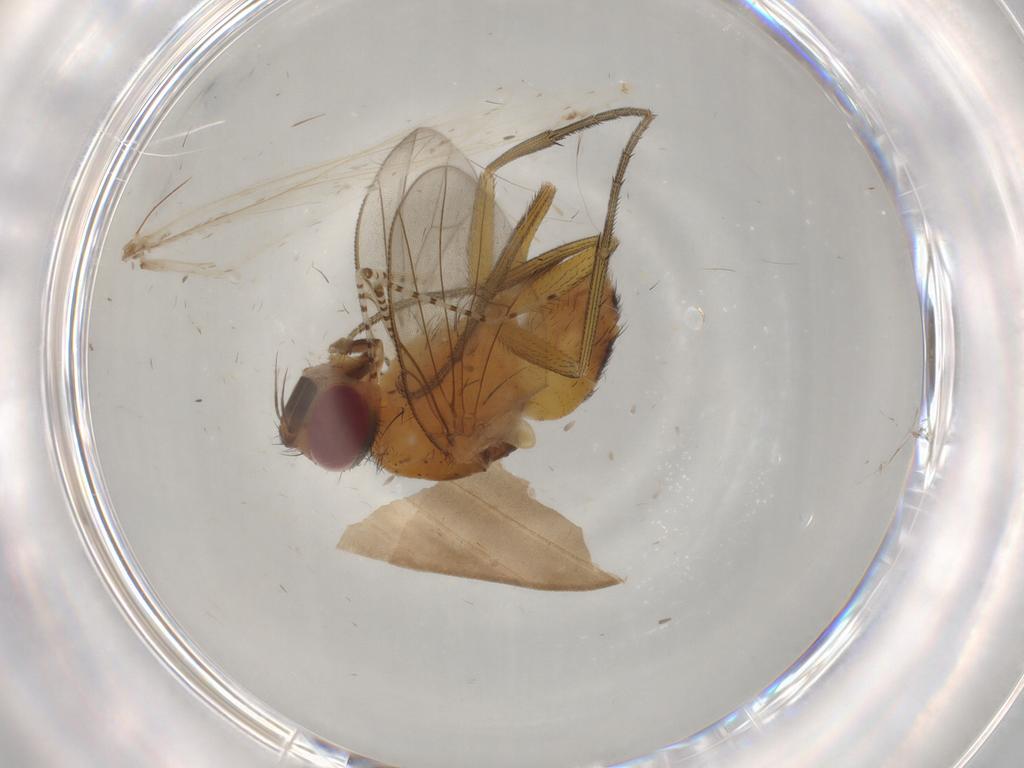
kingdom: Animalia
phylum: Arthropoda
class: Insecta
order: Diptera
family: Muscidae
